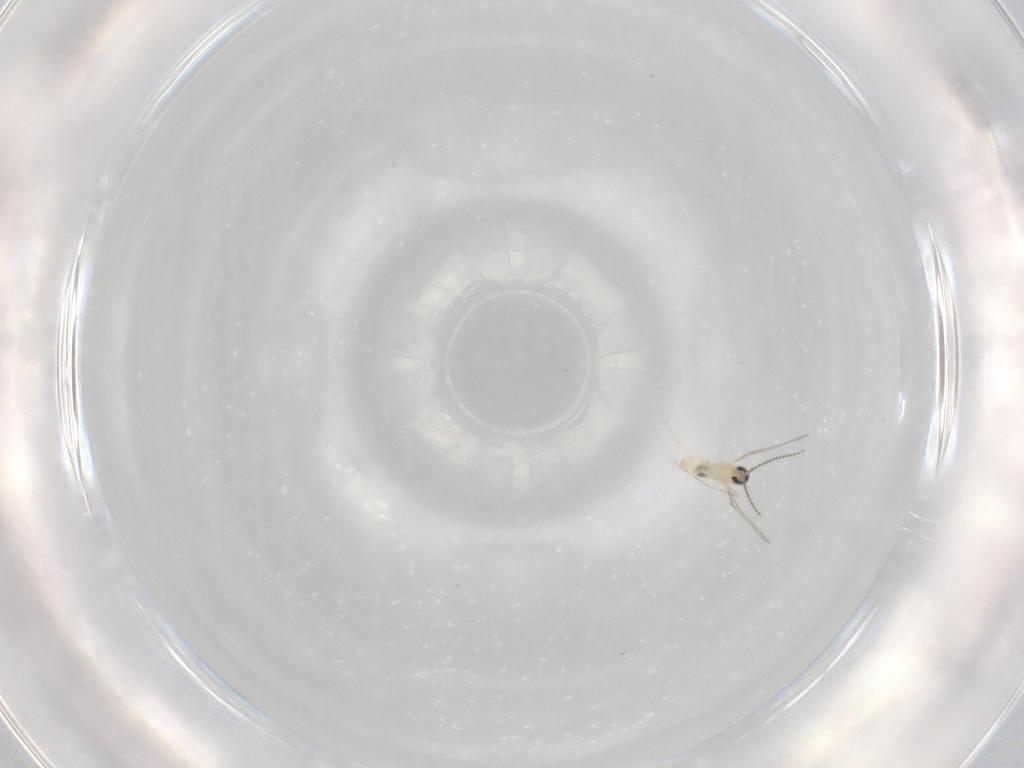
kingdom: Animalia
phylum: Arthropoda
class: Insecta
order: Diptera
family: Cecidomyiidae
